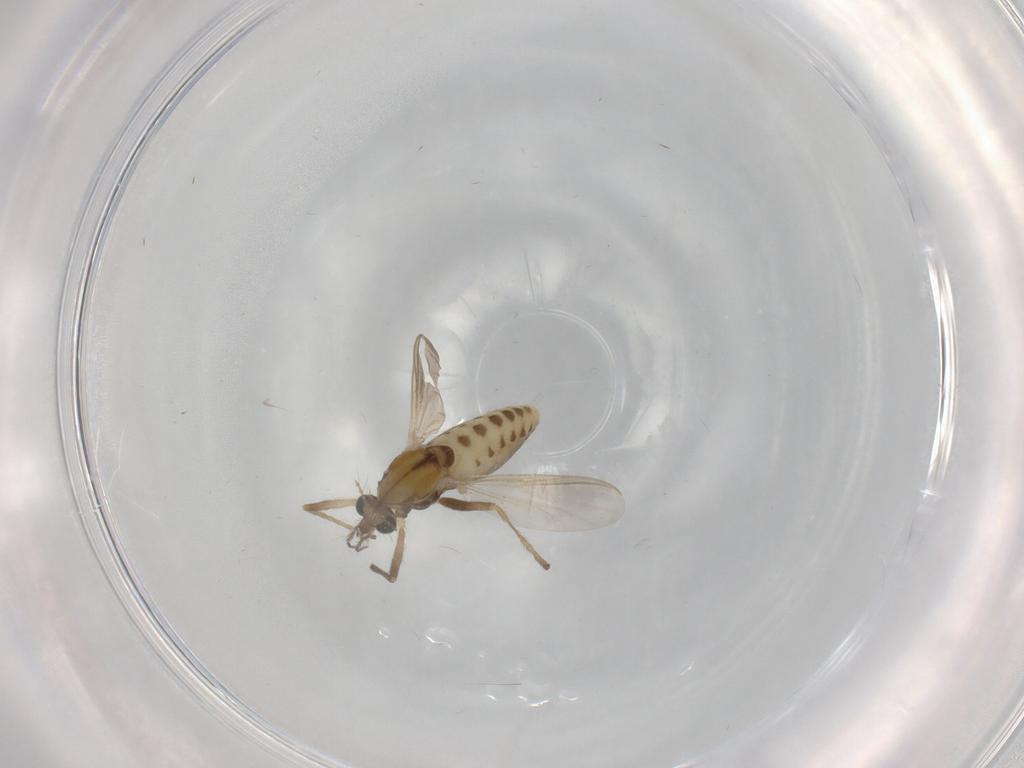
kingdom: Animalia
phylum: Arthropoda
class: Insecta
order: Diptera
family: Chironomidae
